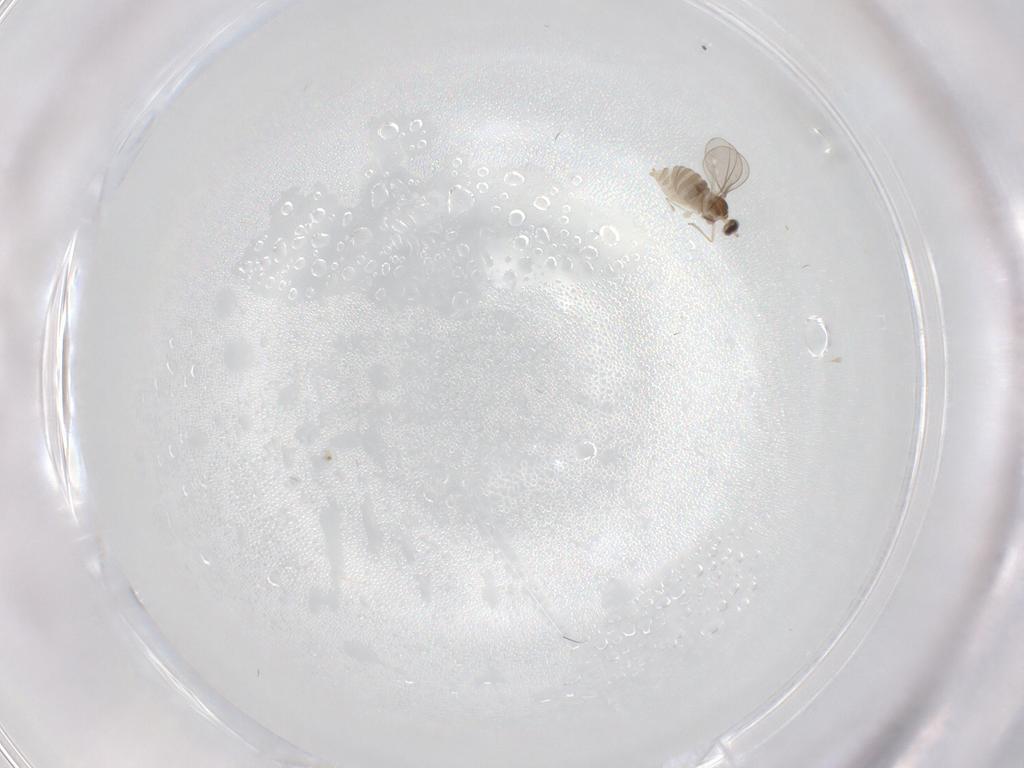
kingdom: Animalia
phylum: Arthropoda
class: Insecta
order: Diptera
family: Cecidomyiidae
